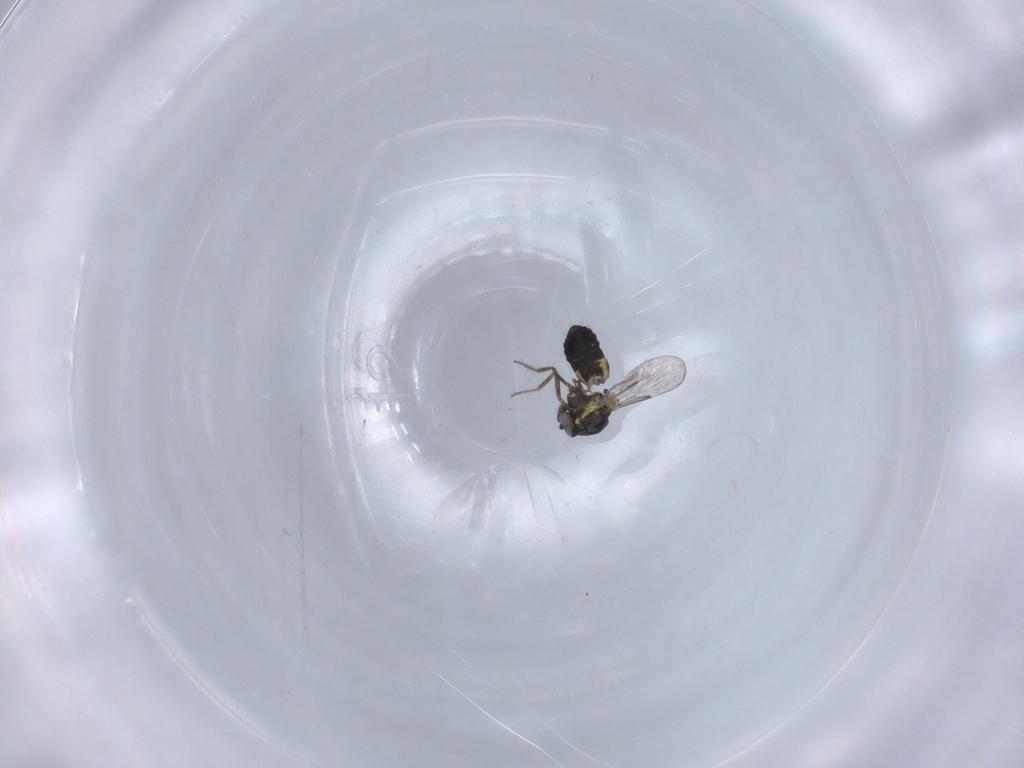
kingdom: Animalia
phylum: Arthropoda
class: Insecta
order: Diptera
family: Ceratopogonidae
